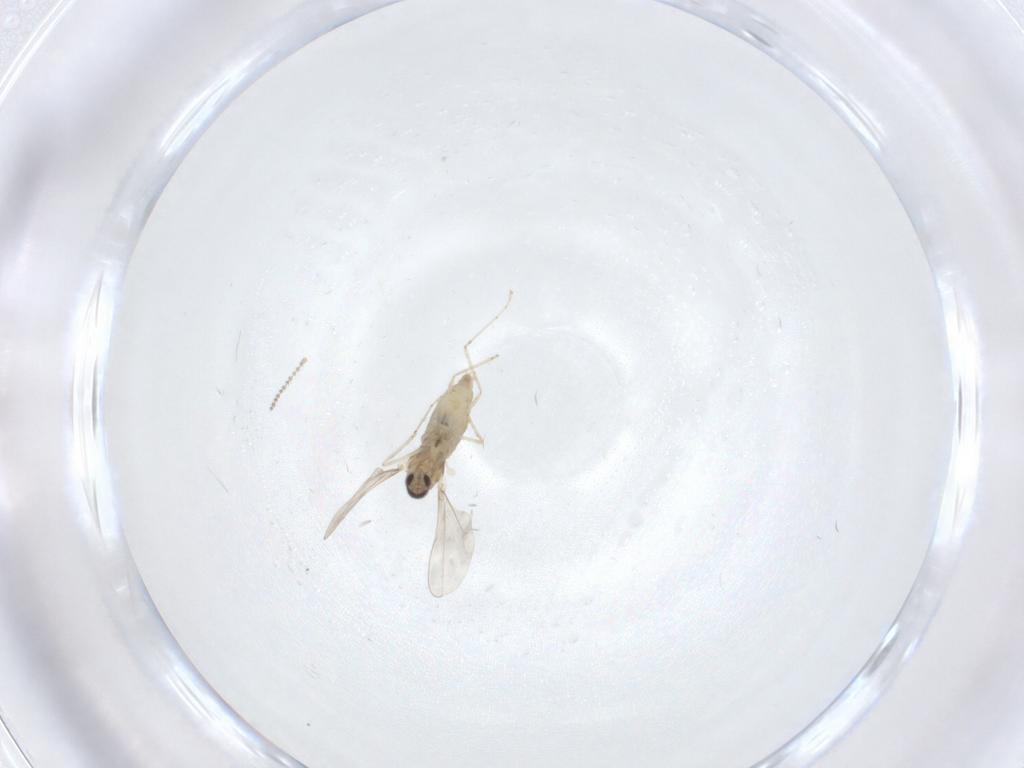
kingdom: Animalia
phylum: Arthropoda
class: Insecta
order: Diptera
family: Cecidomyiidae
